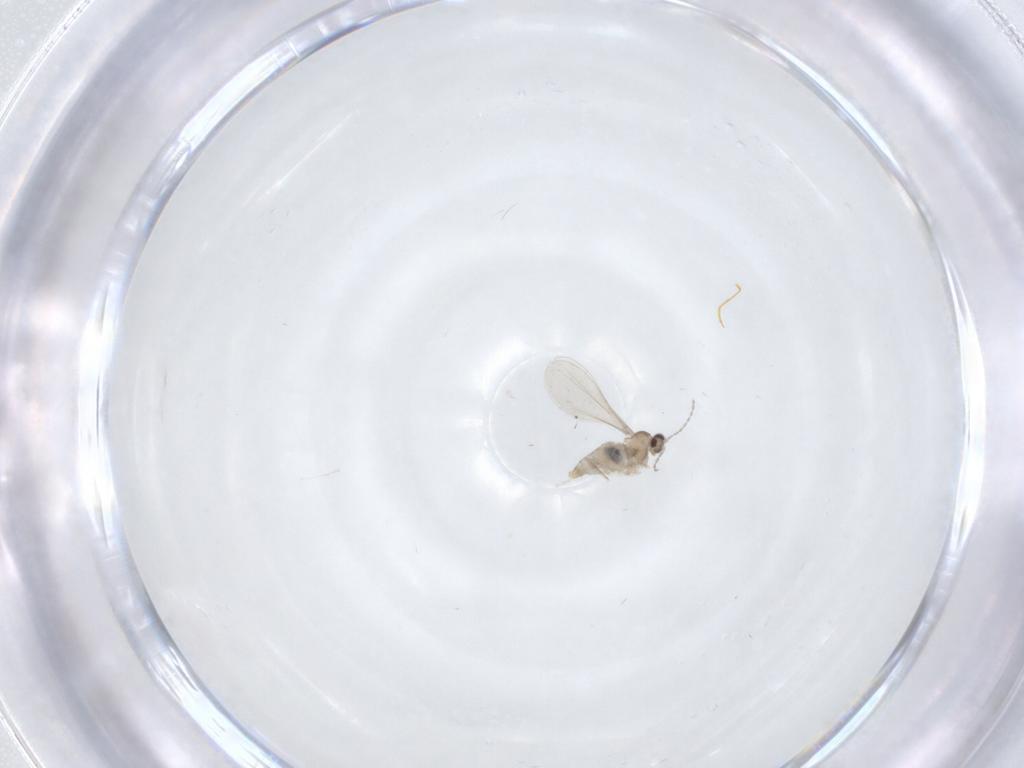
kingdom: Animalia
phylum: Arthropoda
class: Insecta
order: Diptera
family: Cecidomyiidae
